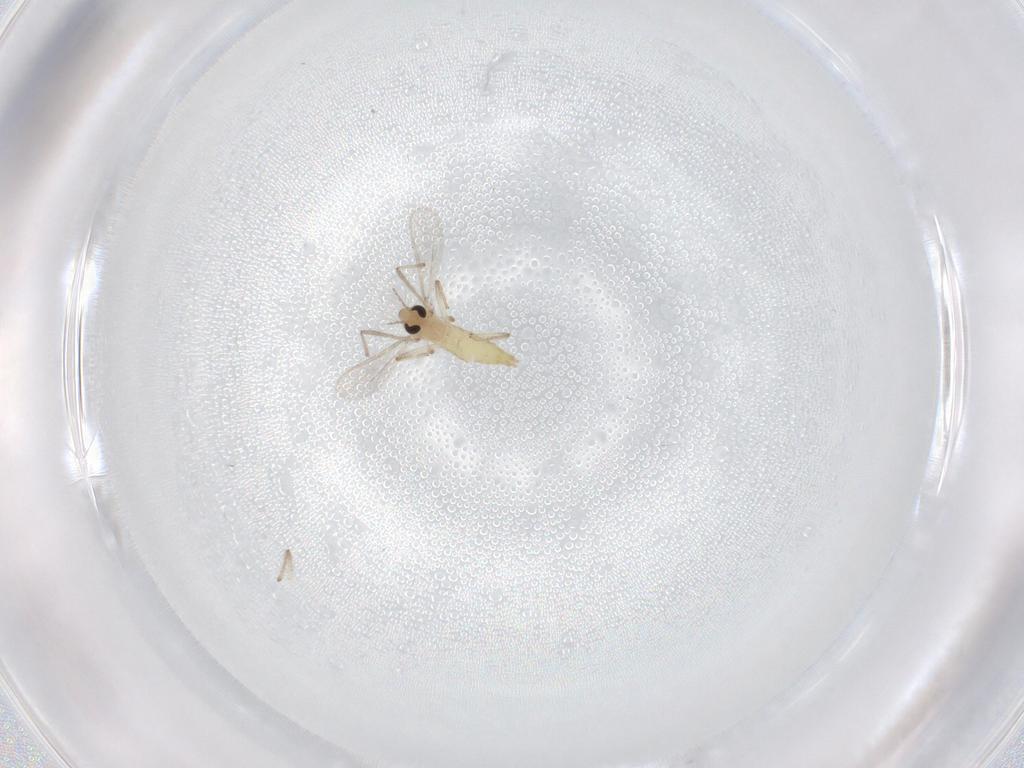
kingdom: Animalia
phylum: Arthropoda
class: Insecta
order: Diptera
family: Chironomidae
